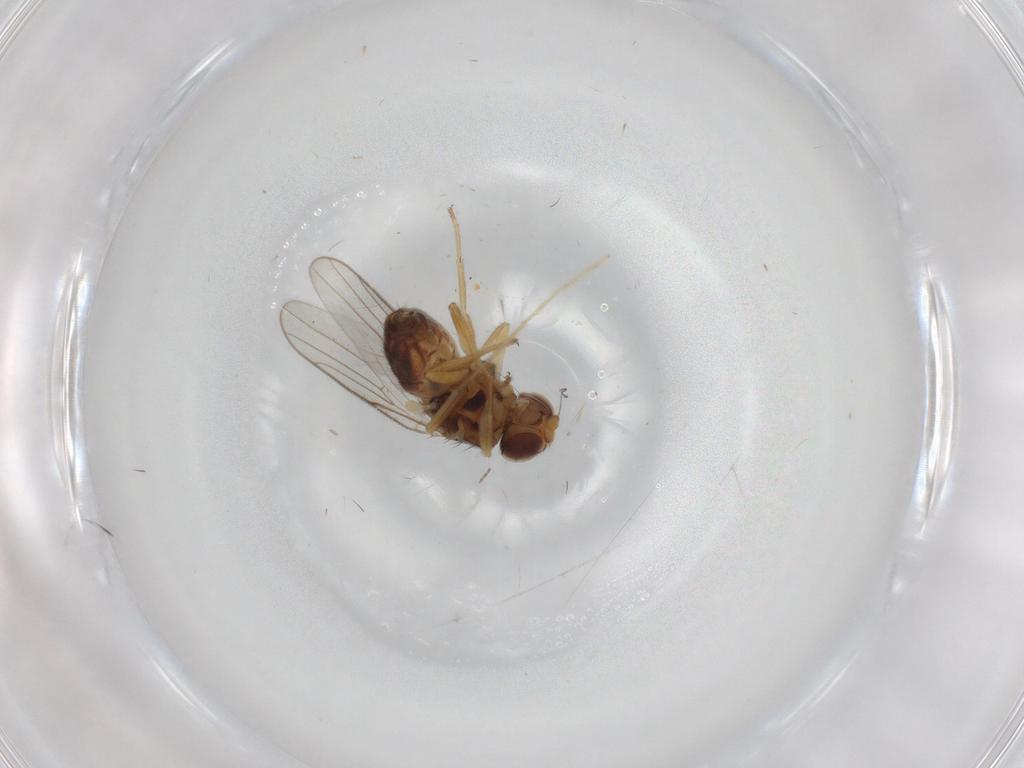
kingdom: Animalia
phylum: Arthropoda
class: Insecta
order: Diptera
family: Chloropidae
